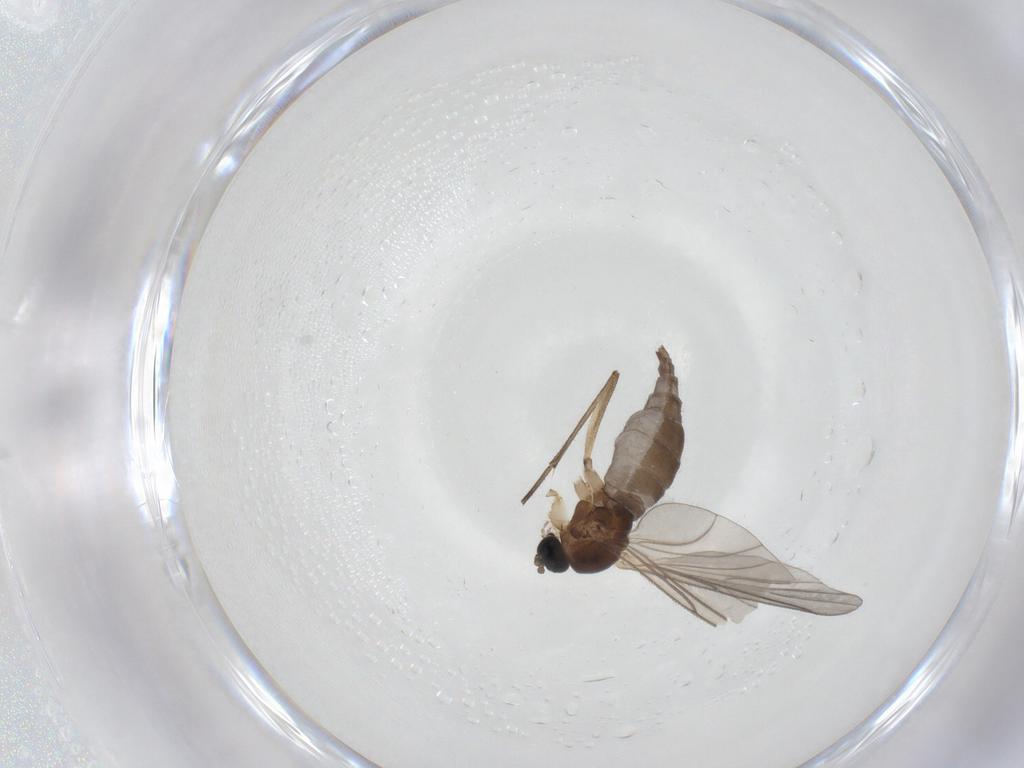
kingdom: Animalia
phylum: Arthropoda
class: Insecta
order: Diptera
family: Sciaridae
